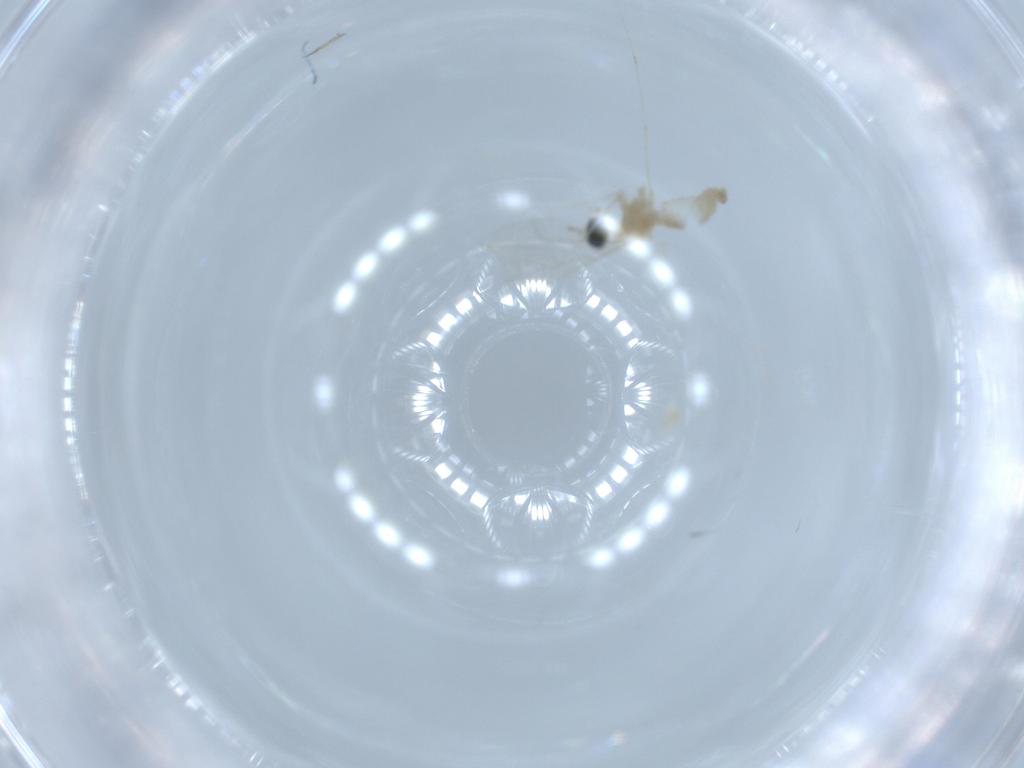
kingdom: Animalia
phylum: Arthropoda
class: Insecta
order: Diptera
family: Cecidomyiidae
